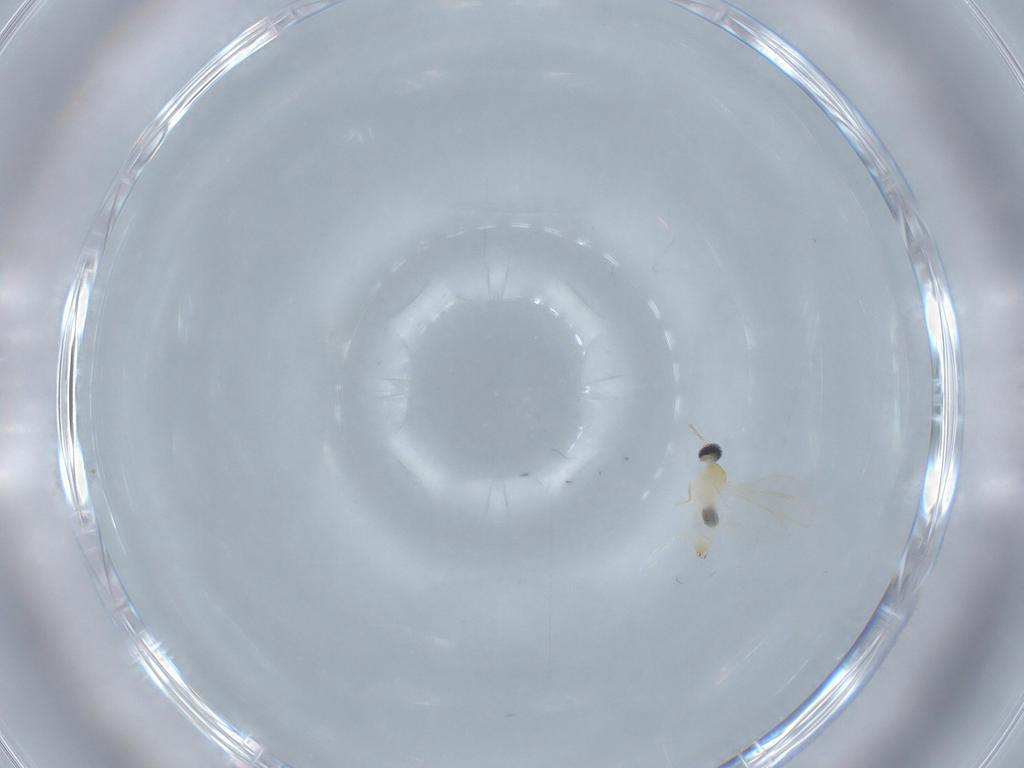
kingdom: Animalia
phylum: Arthropoda
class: Insecta
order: Diptera
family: Cecidomyiidae
